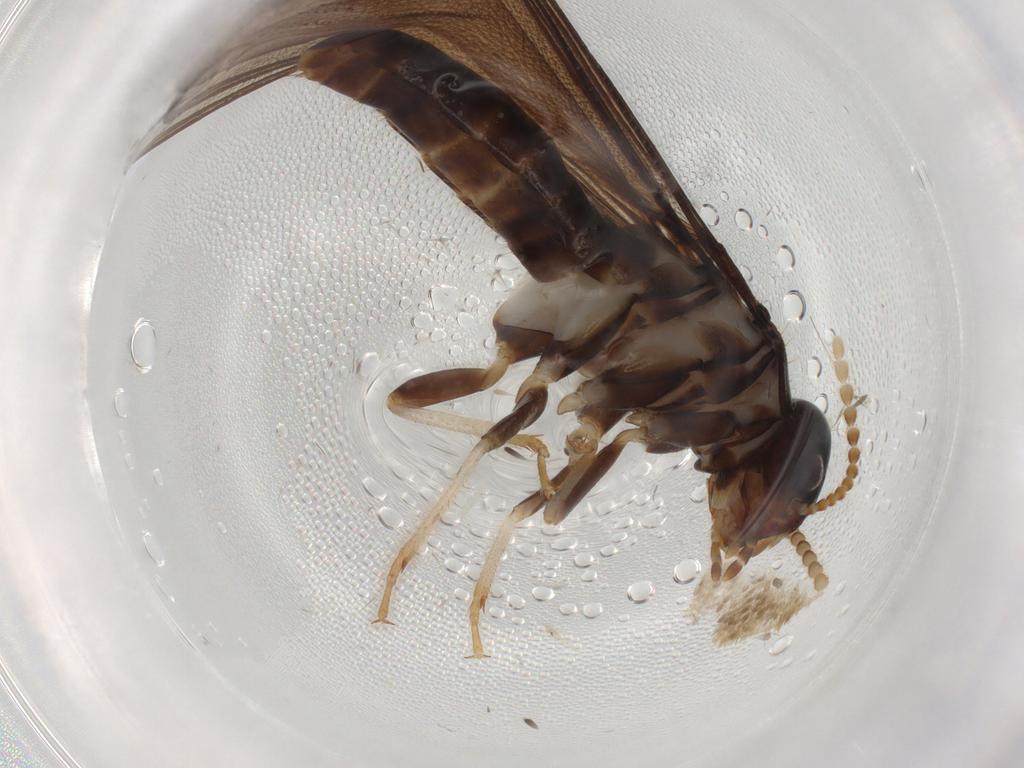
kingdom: Animalia
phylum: Arthropoda
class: Insecta
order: Blattodea
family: Kalotermitidae
